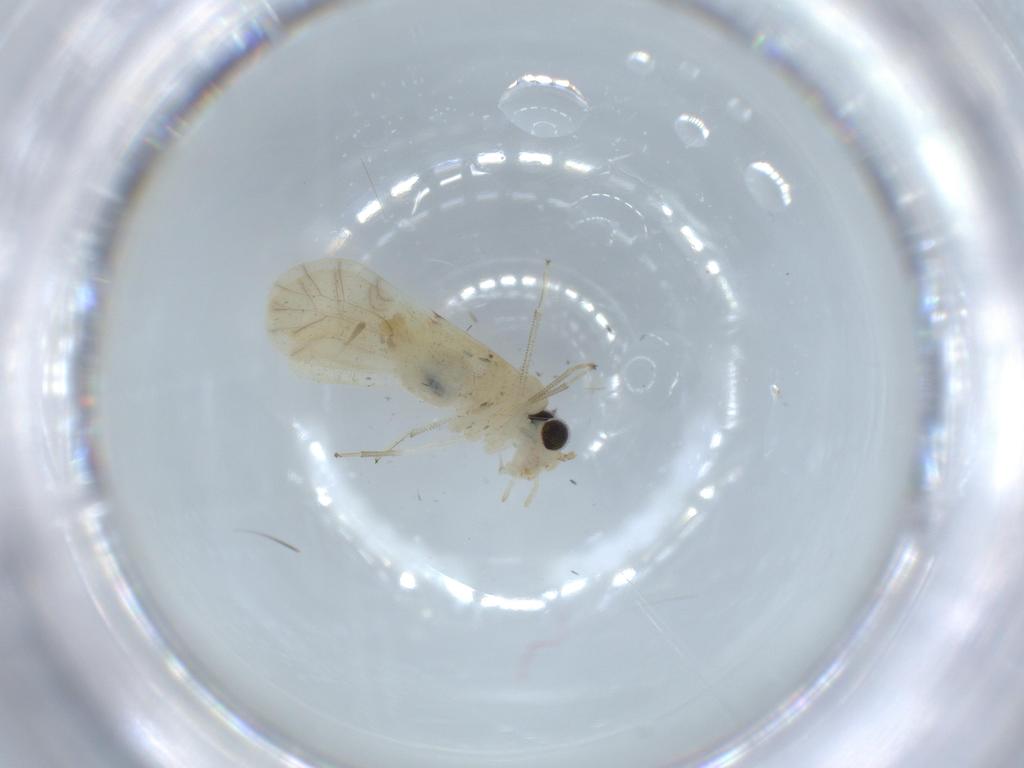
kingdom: Animalia
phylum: Arthropoda
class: Insecta
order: Psocodea
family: Caeciliusidae
